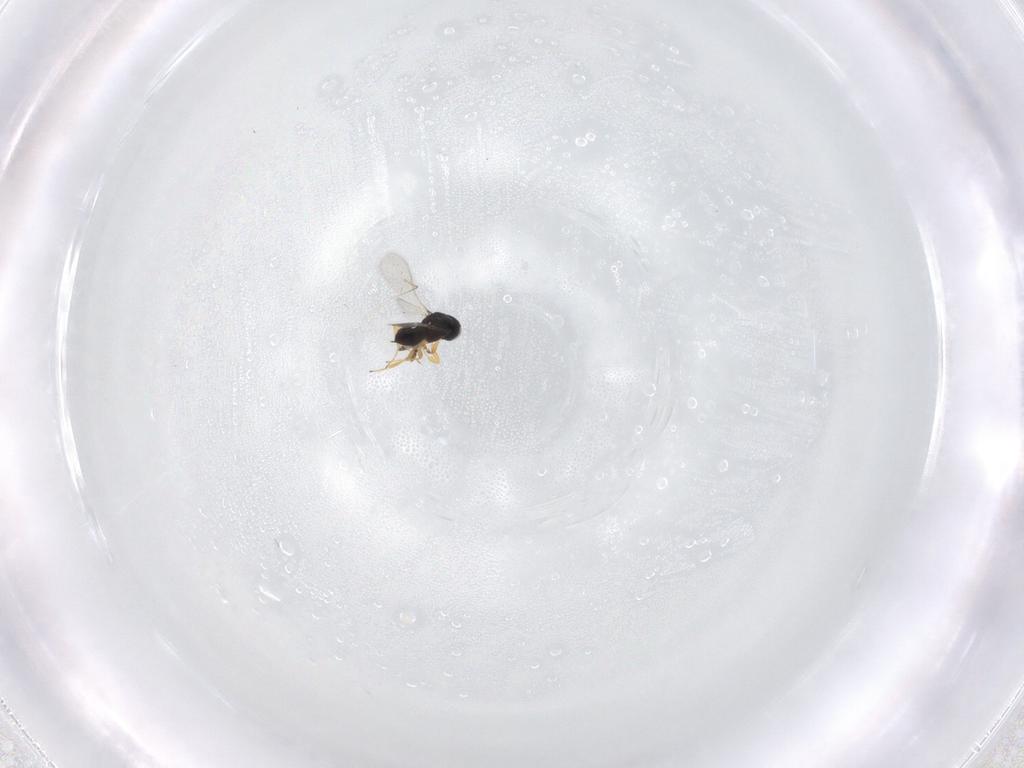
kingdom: Animalia
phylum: Arthropoda
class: Insecta
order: Hymenoptera
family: Scelionidae
